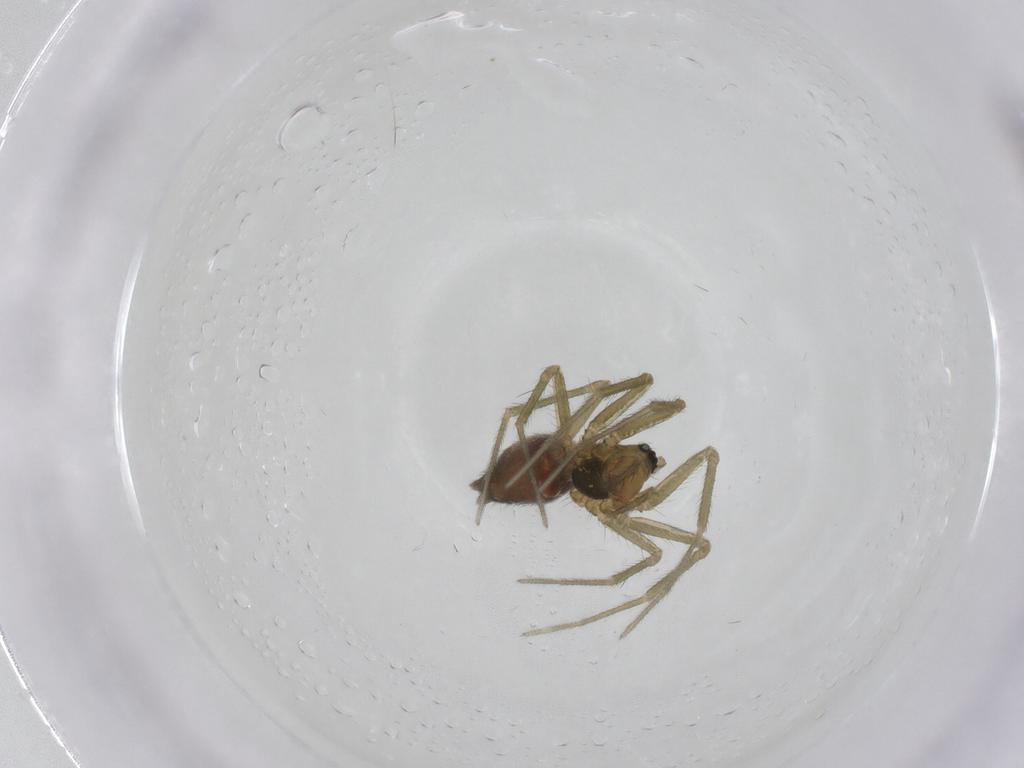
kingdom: Animalia
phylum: Arthropoda
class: Arachnida
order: Araneae
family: Linyphiidae
